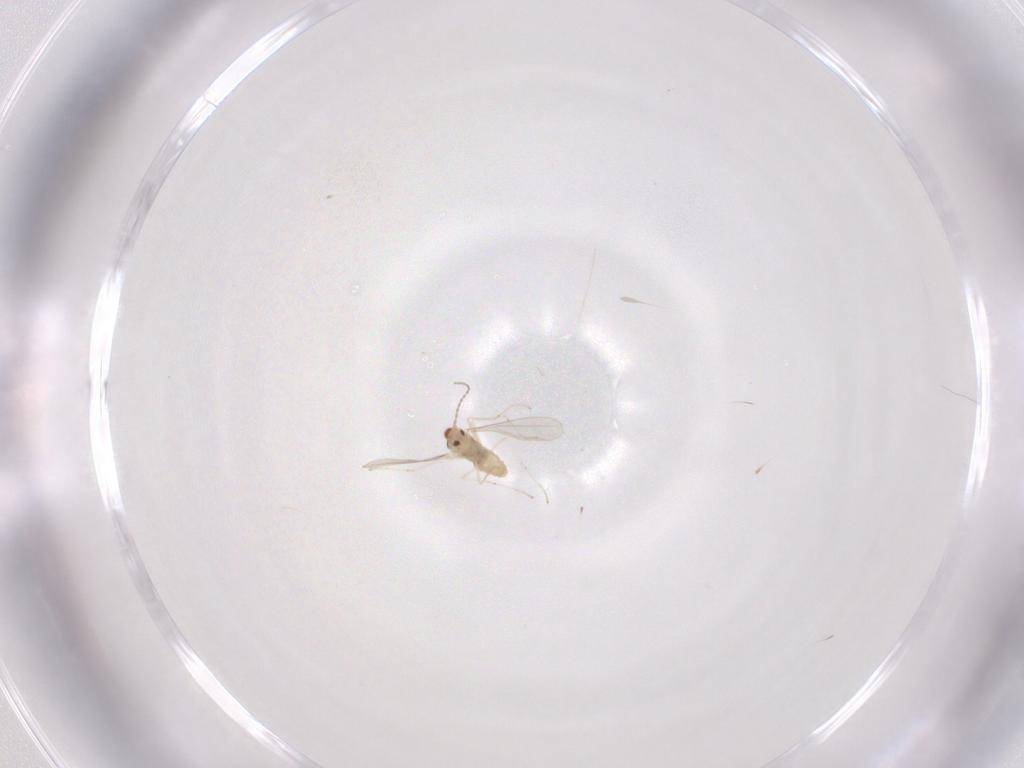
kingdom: Animalia
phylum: Arthropoda
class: Insecta
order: Diptera
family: Cecidomyiidae
